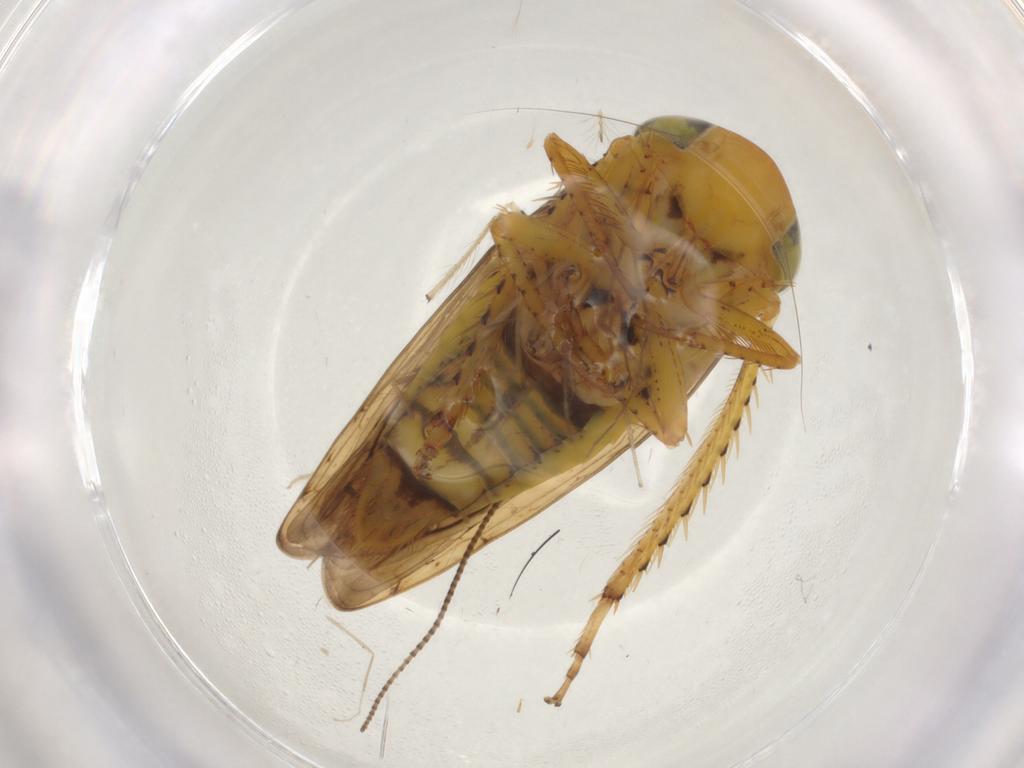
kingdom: Animalia
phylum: Arthropoda
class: Insecta
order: Hemiptera
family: Cicadellidae
